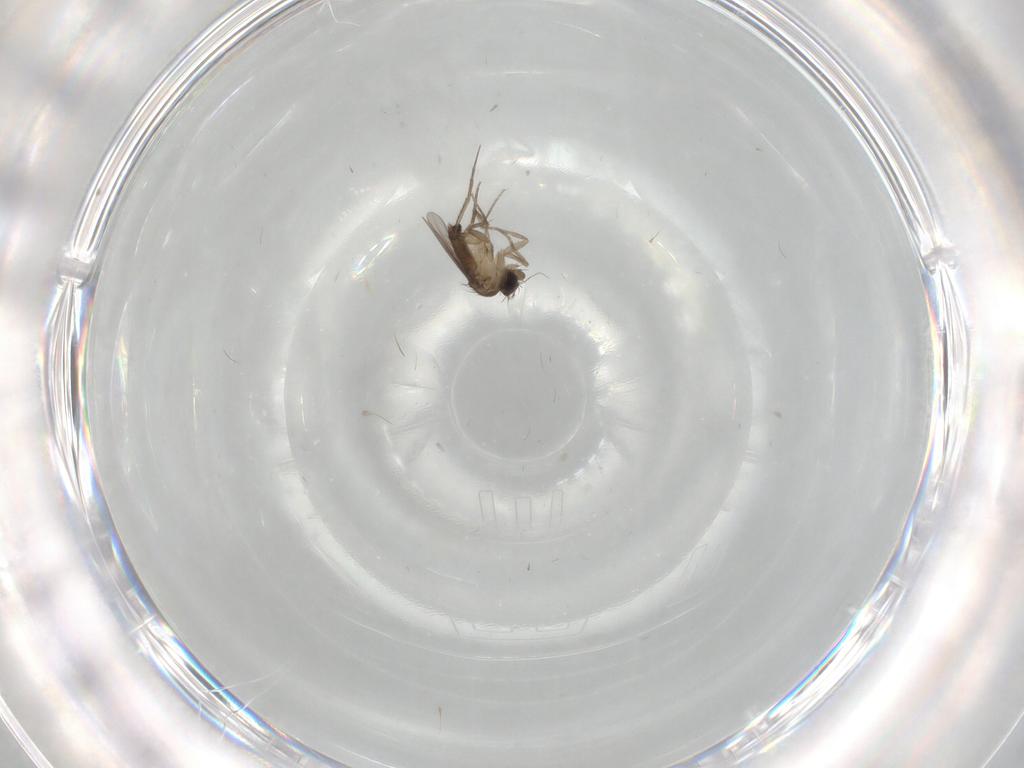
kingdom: Animalia
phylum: Arthropoda
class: Insecta
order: Diptera
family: Phoridae
